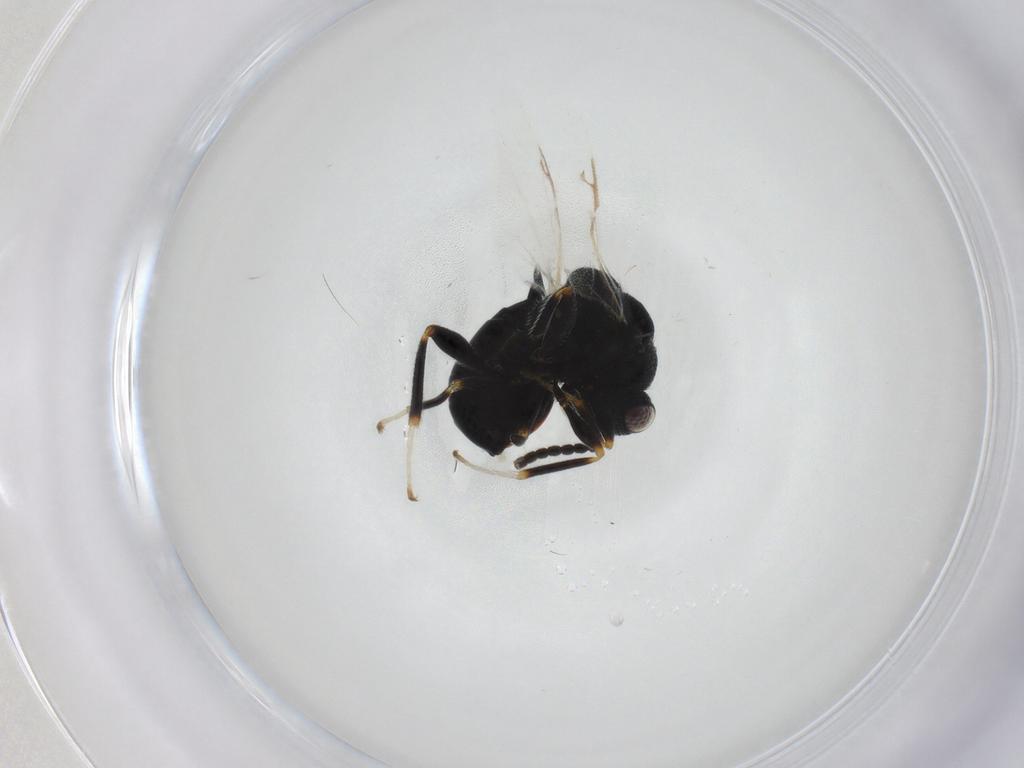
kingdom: Animalia
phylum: Arthropoda
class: Insecta
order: Hymenoptera
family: Eurytomidae
